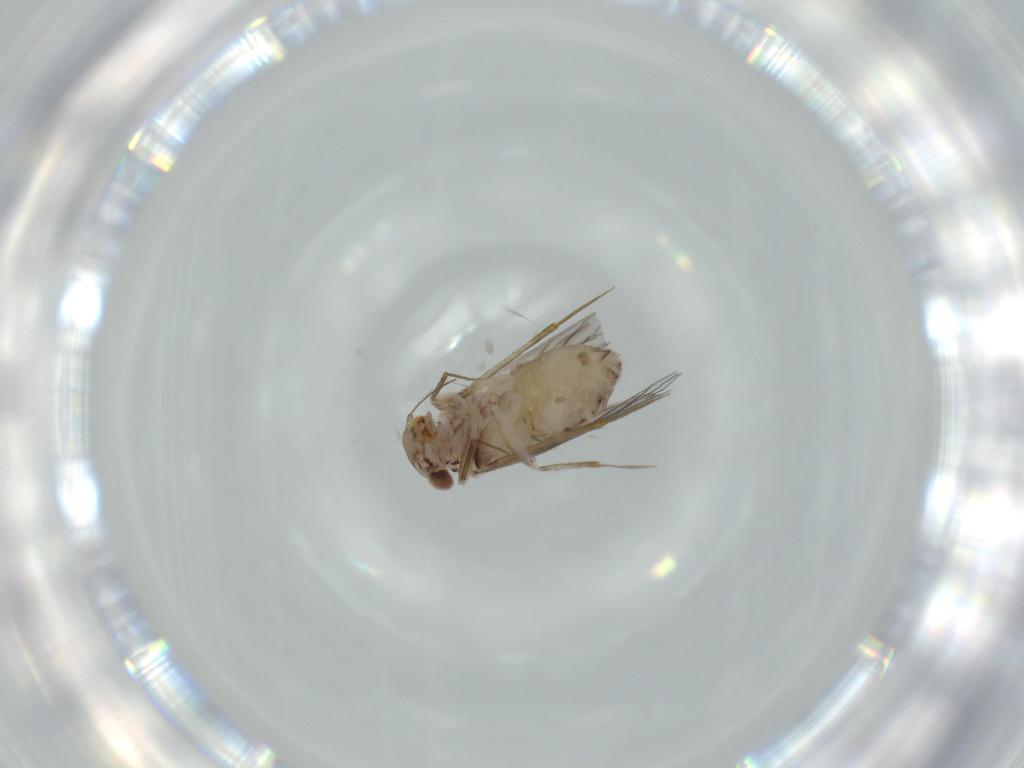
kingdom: Animalia
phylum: Arthropoda
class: Insecta
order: Psocodea
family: Lepidopsocidae
